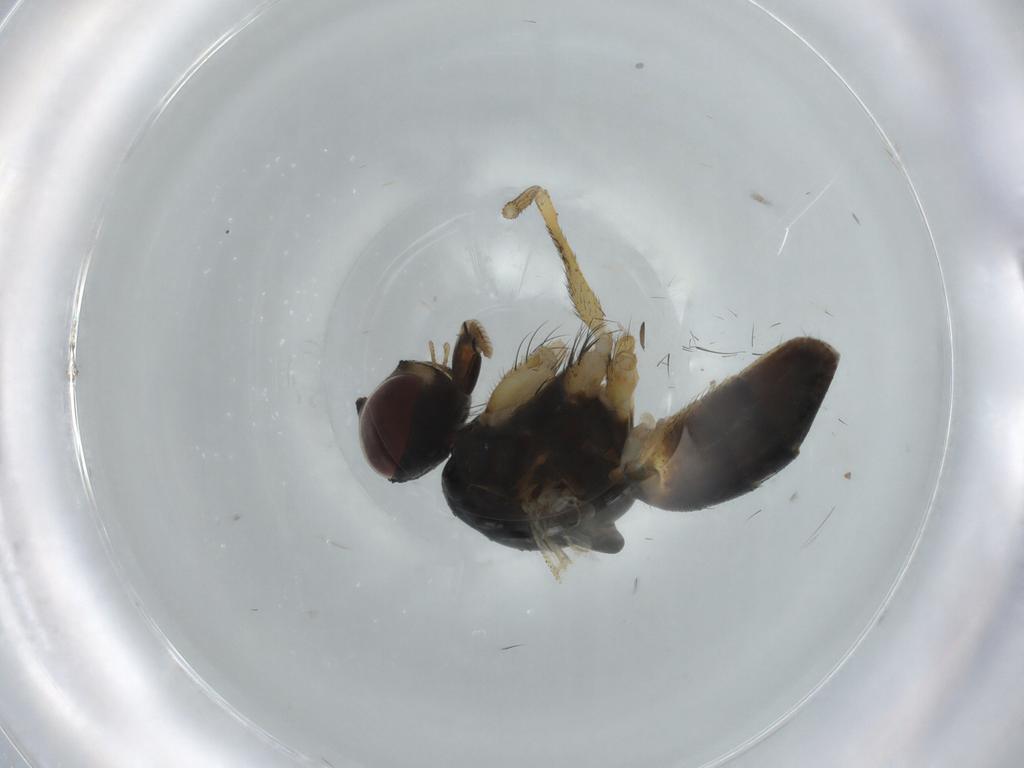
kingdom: Animalia
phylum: Arthropoda
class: Insecta
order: Diptera
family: Muscidae
